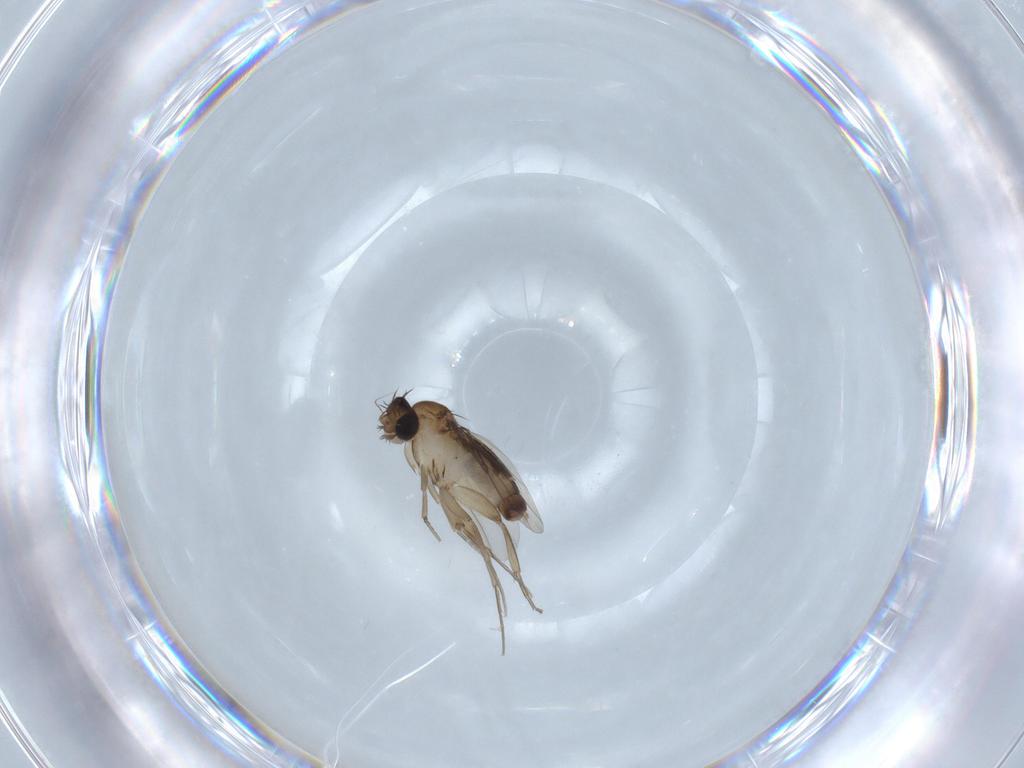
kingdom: Animalia
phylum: Arthropoda
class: Insecta
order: Diptera
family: Phoridae
